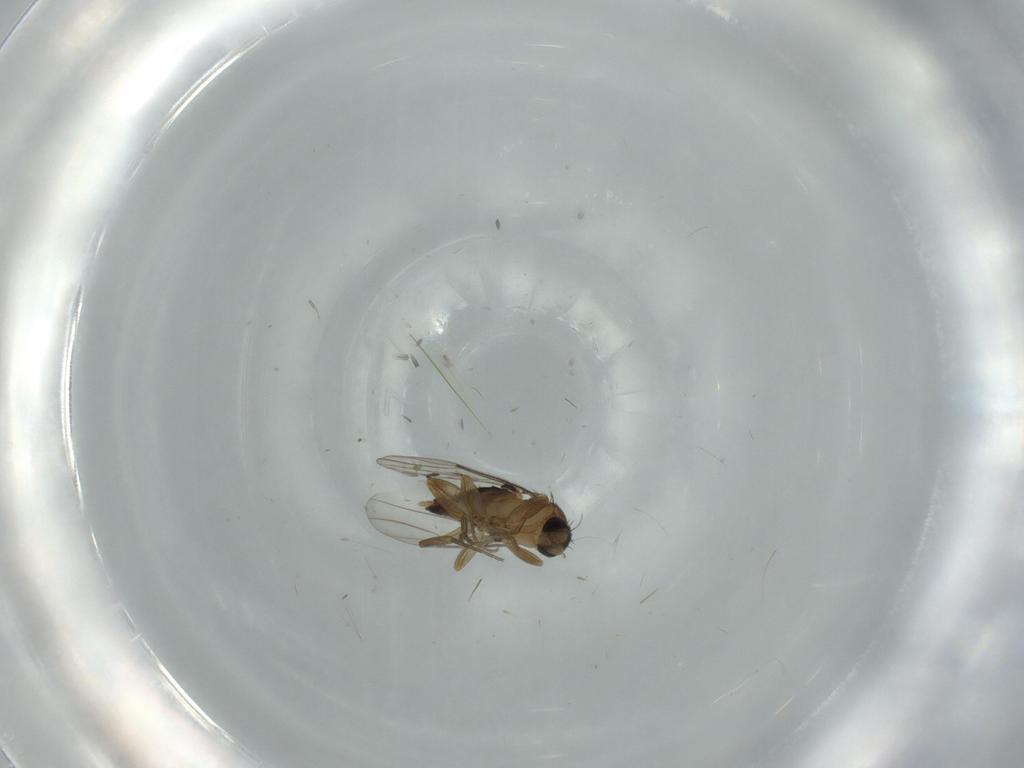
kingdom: Animalia
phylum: Arthropoda
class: Insecta
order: Diptera
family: Phoridae
